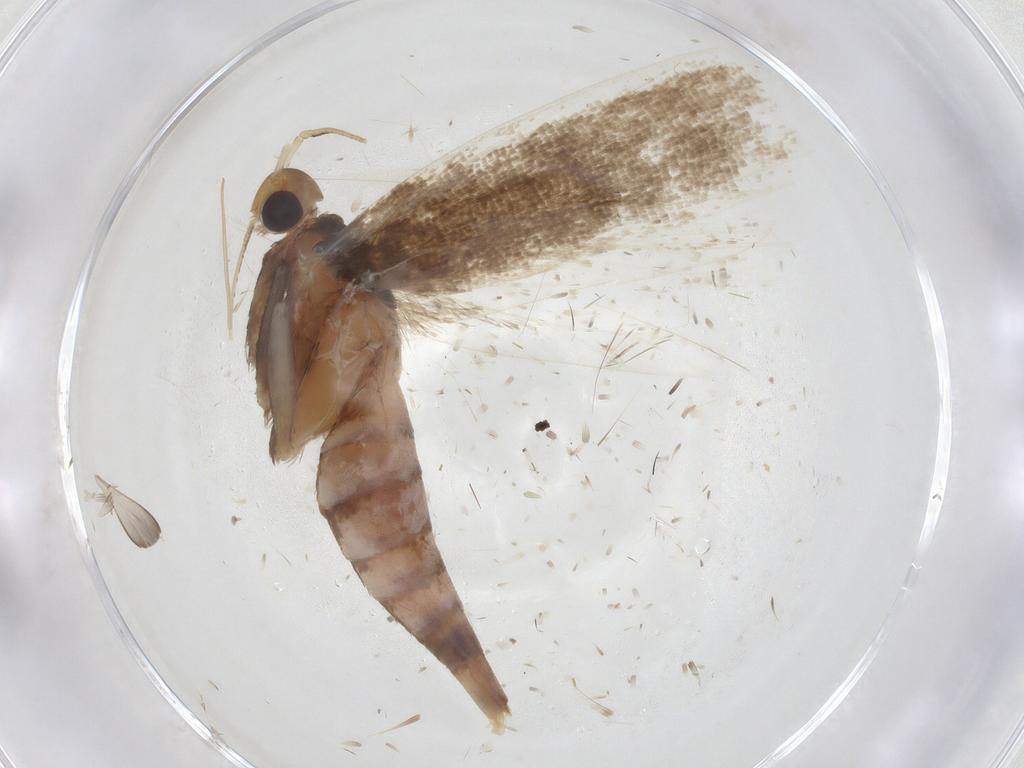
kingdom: Animalia
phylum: Arthropoda
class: Insecta
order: Lepidoptera
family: Gelechiidae
